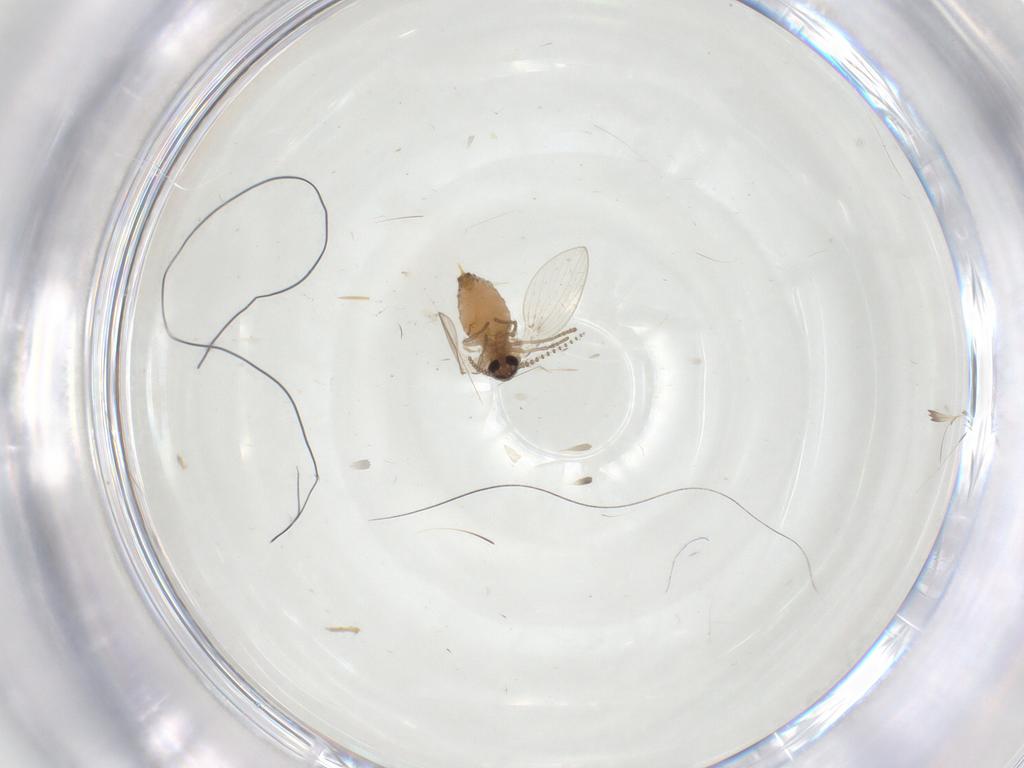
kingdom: Animalia
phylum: Arthropoda
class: Insecta
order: Diptera
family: Psychodidae
